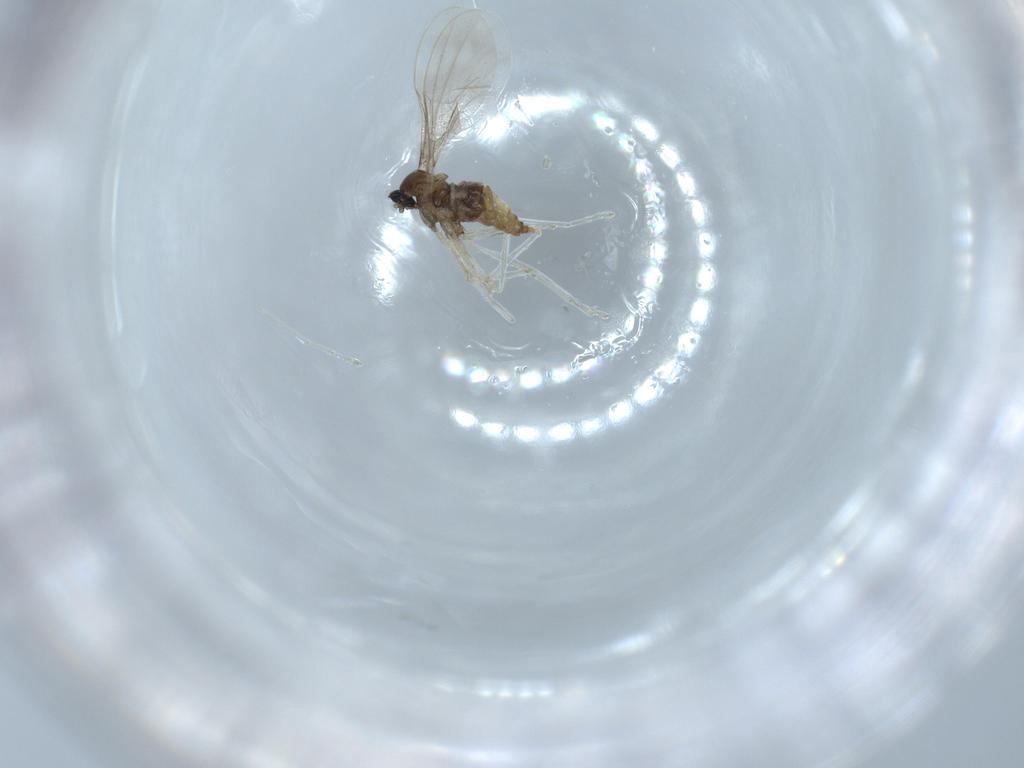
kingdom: Animalia
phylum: Arthropoda
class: Insecta
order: Diptera
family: Cecidomyiidae
